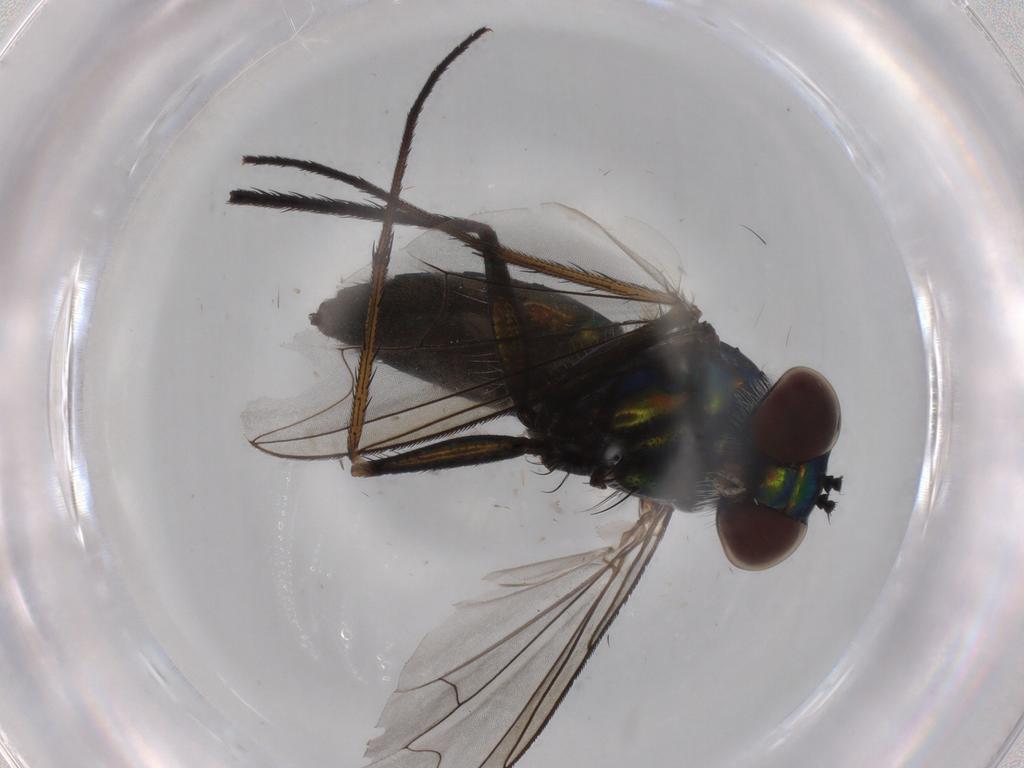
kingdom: Animalia
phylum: Arthropoda
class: Insecta
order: Diptera
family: Dolichopodidae
